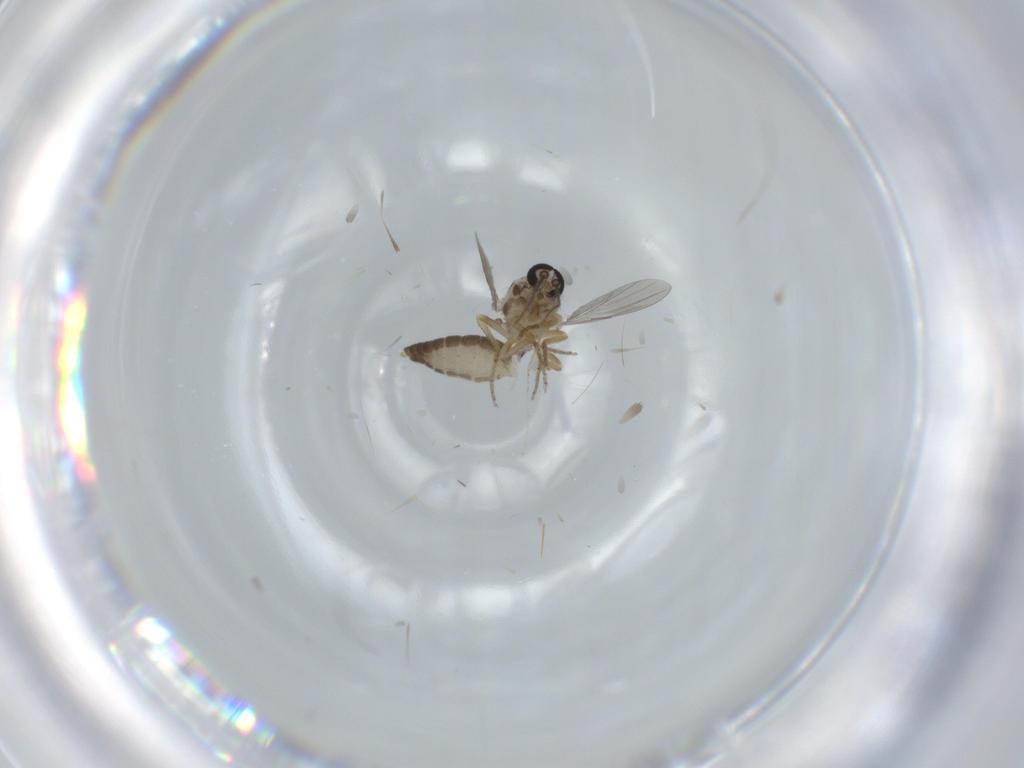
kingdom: Animalia
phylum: Arthropoda
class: Insecta
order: Diptera
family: Ceratopogonidae
